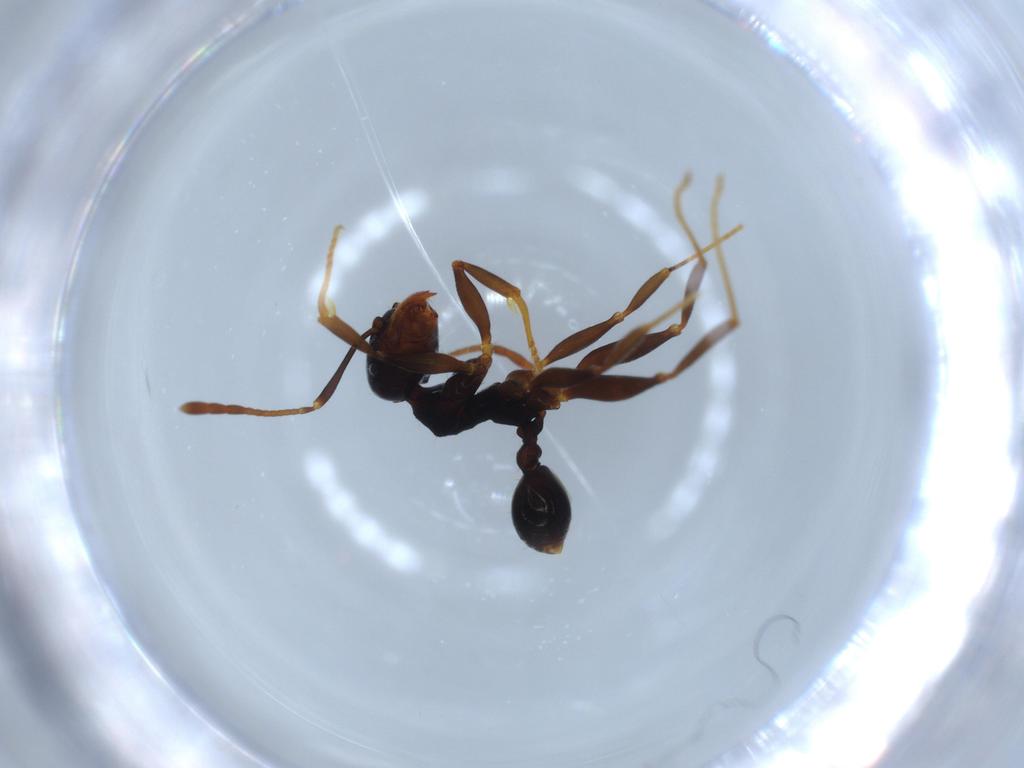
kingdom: Animalia
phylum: Arthropoda
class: Insecta
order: Hymenoptera
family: Formicidae
